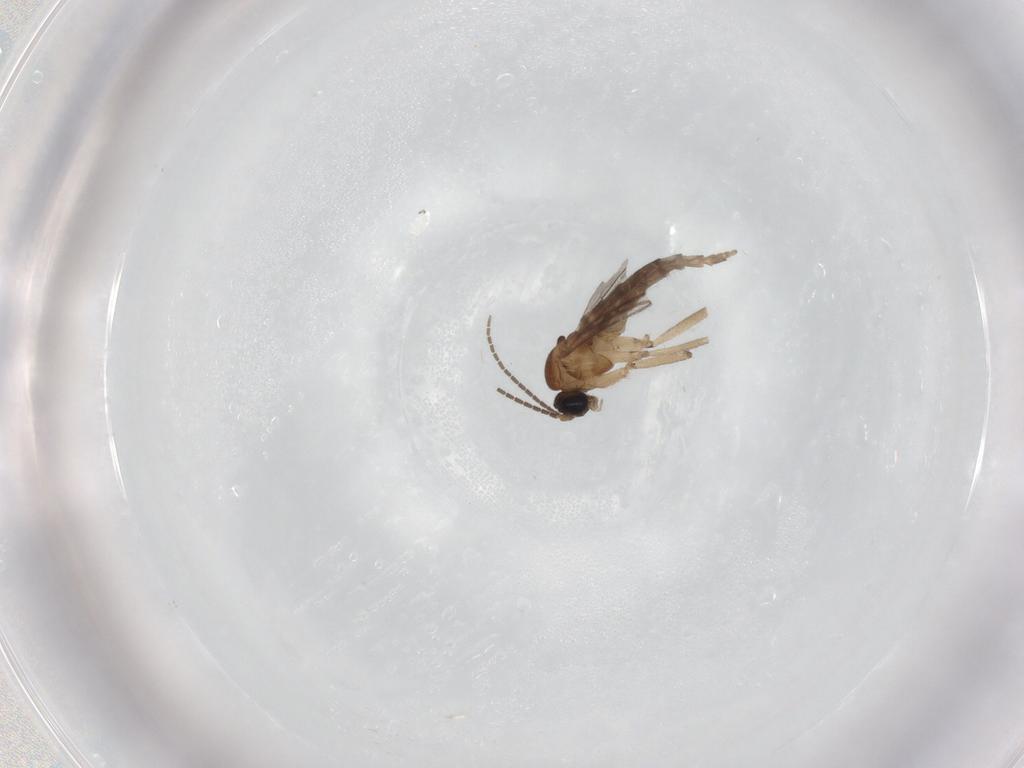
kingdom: Animalia
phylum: Arthropoda
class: Insecta
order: Diptera
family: Sciaridae
